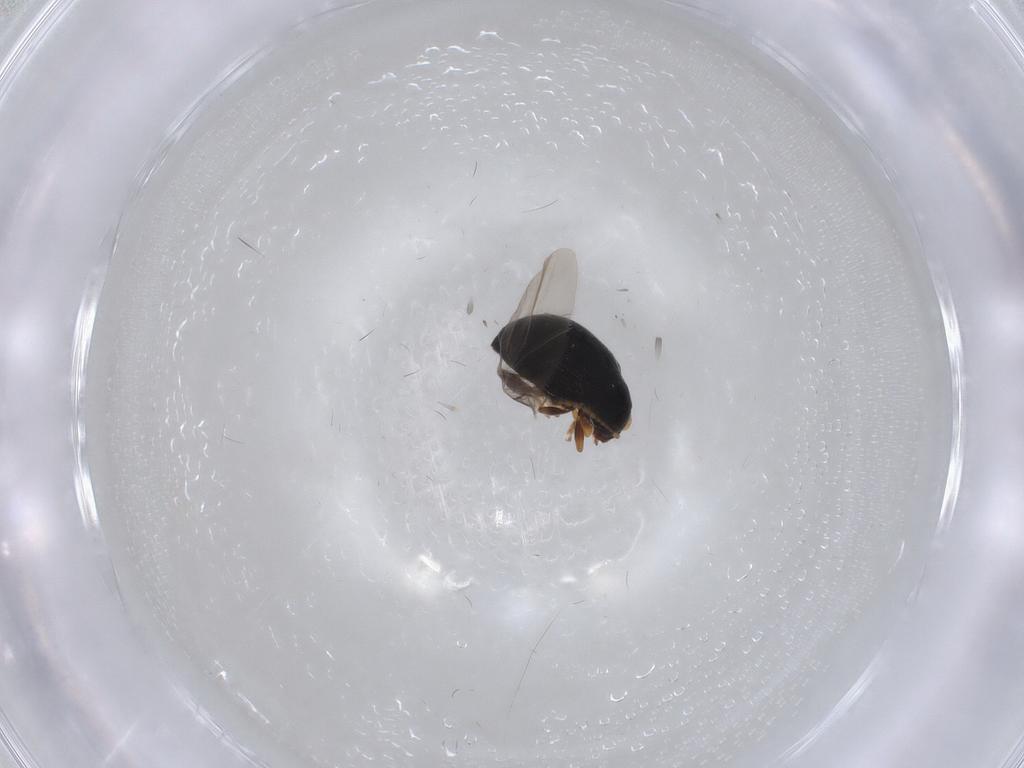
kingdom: Animalia
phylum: Arthropoda
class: Insecta
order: Coleoptera
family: Chrysomelidae
